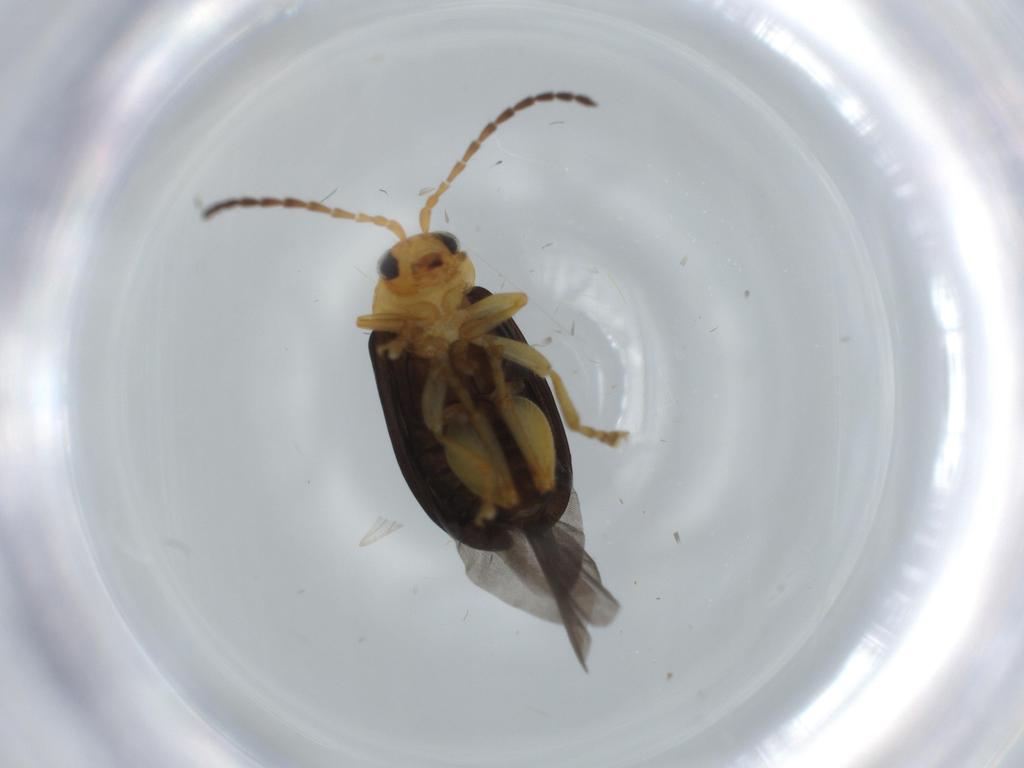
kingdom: Animalia
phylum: Arthropoda
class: Insecta
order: Coleoptera
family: Chrysomelidae
